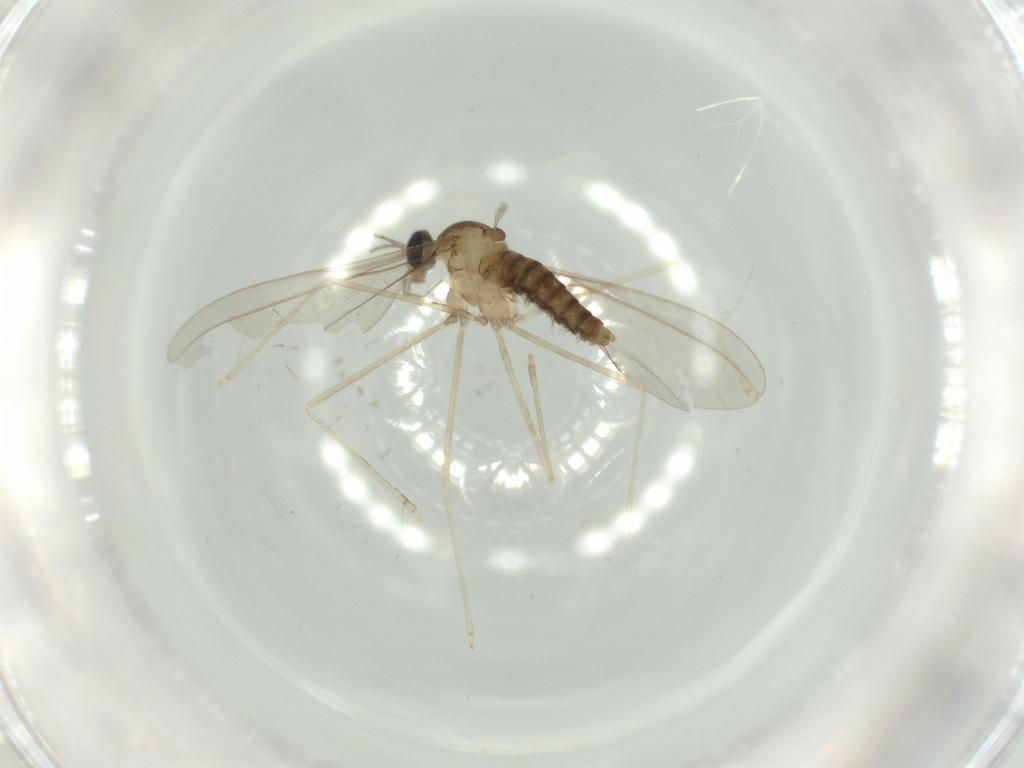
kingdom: Animalia
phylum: Arthropoda
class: Insecta
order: Diptera
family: Cecidomyiidae
